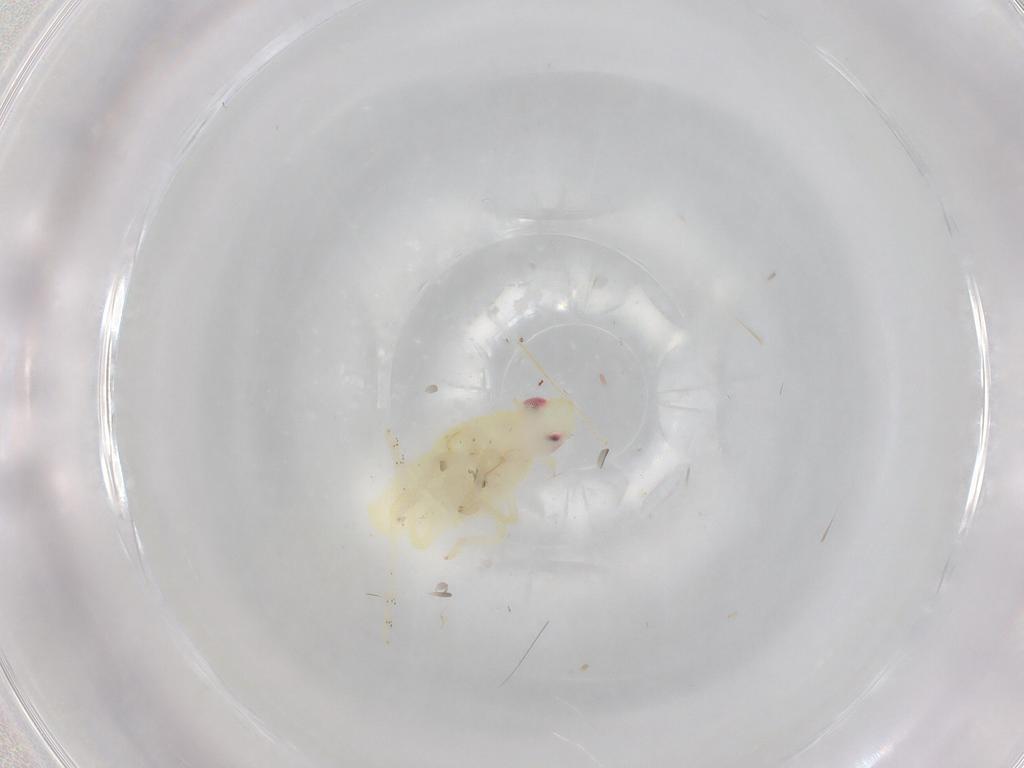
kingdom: Animalia
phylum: Arthropoda
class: Insecta
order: Hemiptera
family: Tropiduchidae
